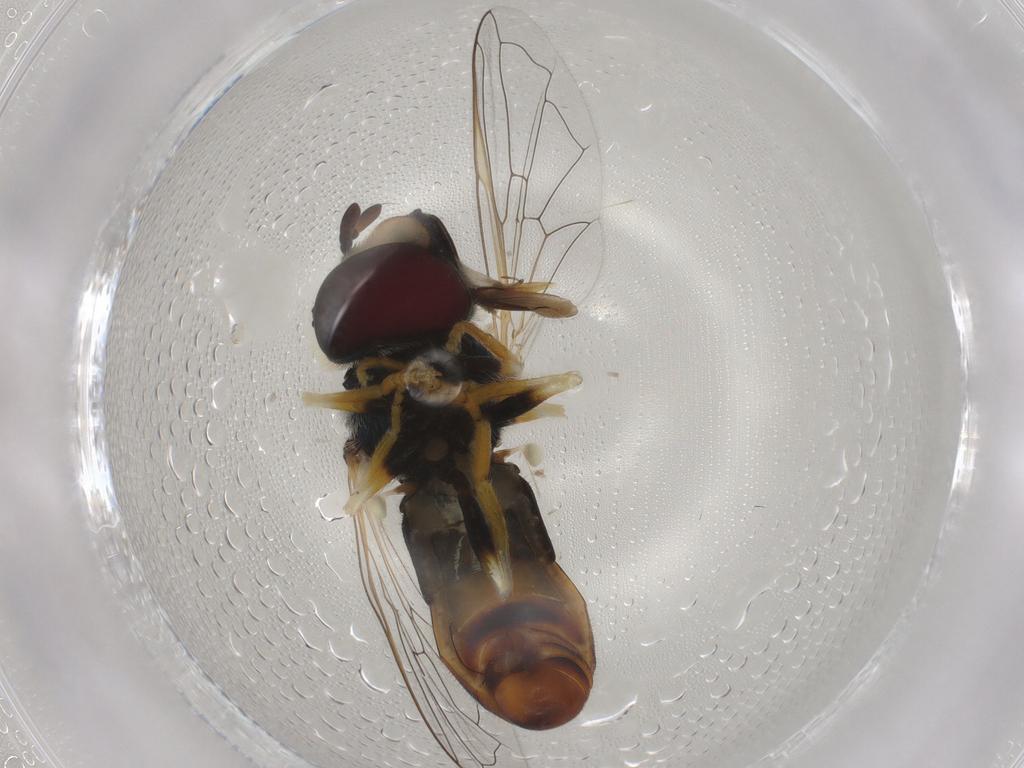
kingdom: Animalia
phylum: Arthropoda
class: Insecta
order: Diptera
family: Syrphidae
